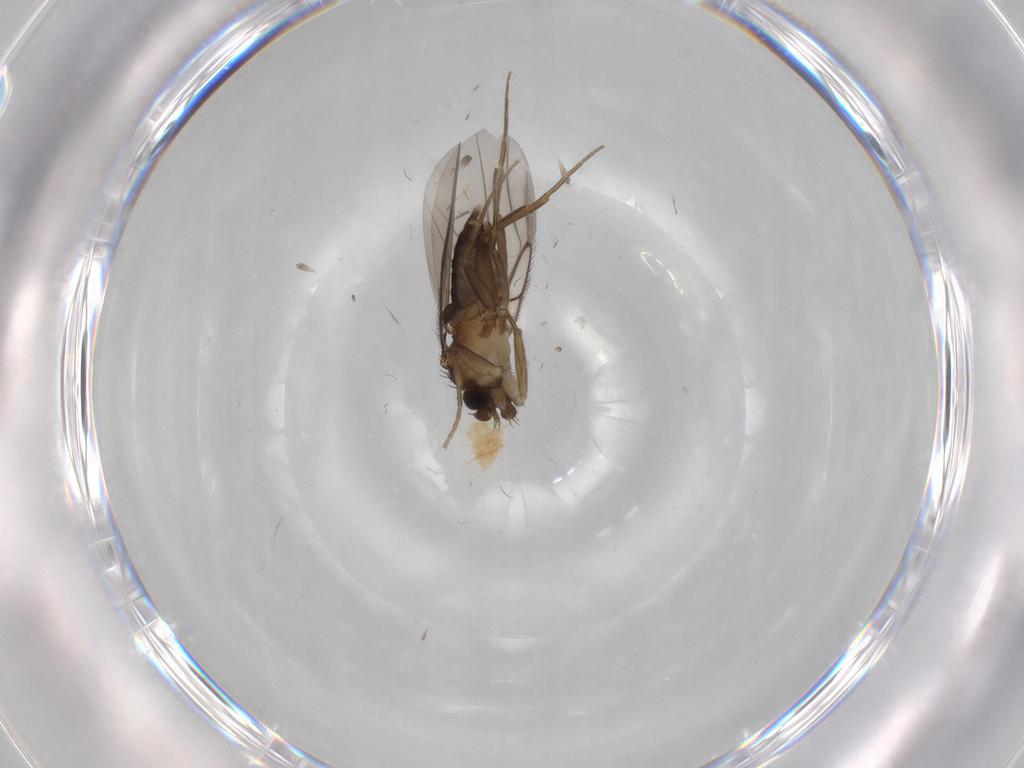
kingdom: Animalia
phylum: Arthropoda
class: Insecta
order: Diptera
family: Phoridae
